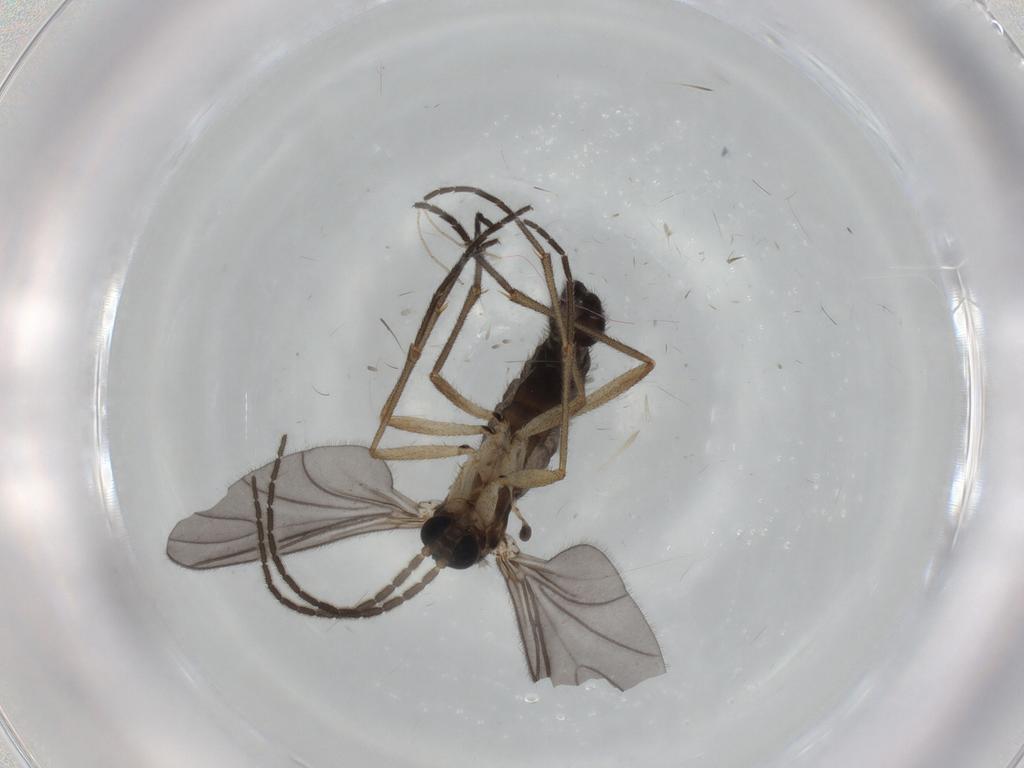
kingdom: Animalia
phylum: Arthropoda
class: Insecta
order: Diptera
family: Sciaridae
